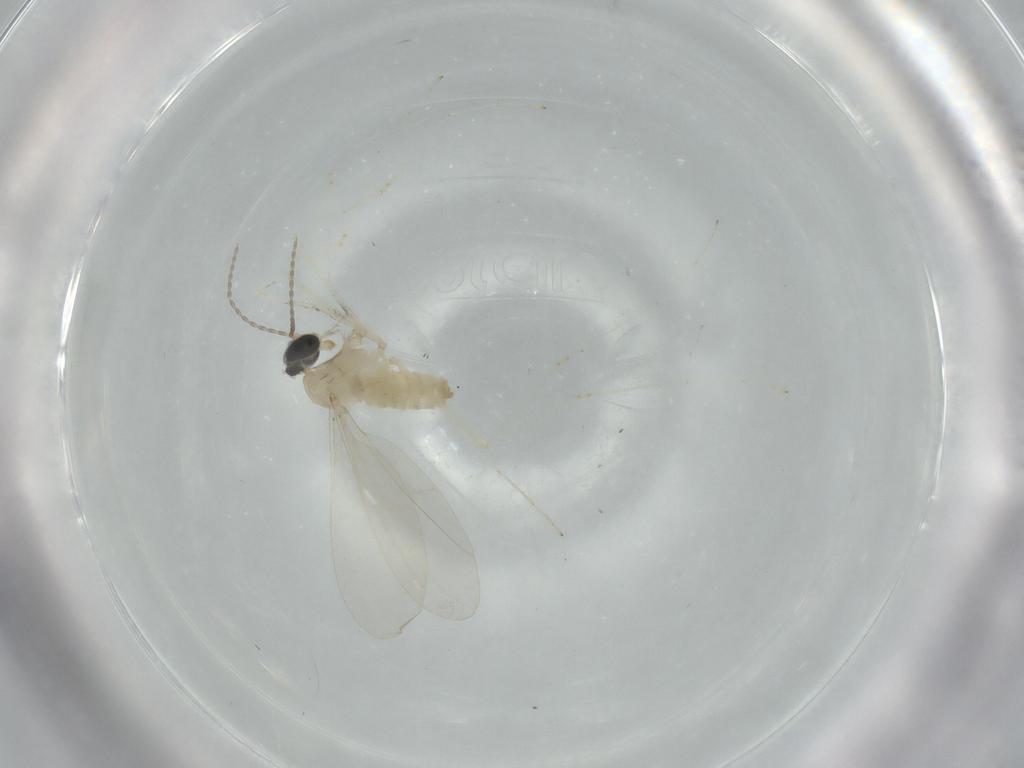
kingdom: Animalia
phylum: Arthropoda
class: Insecta
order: Diptera
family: Cecidomyiidae
